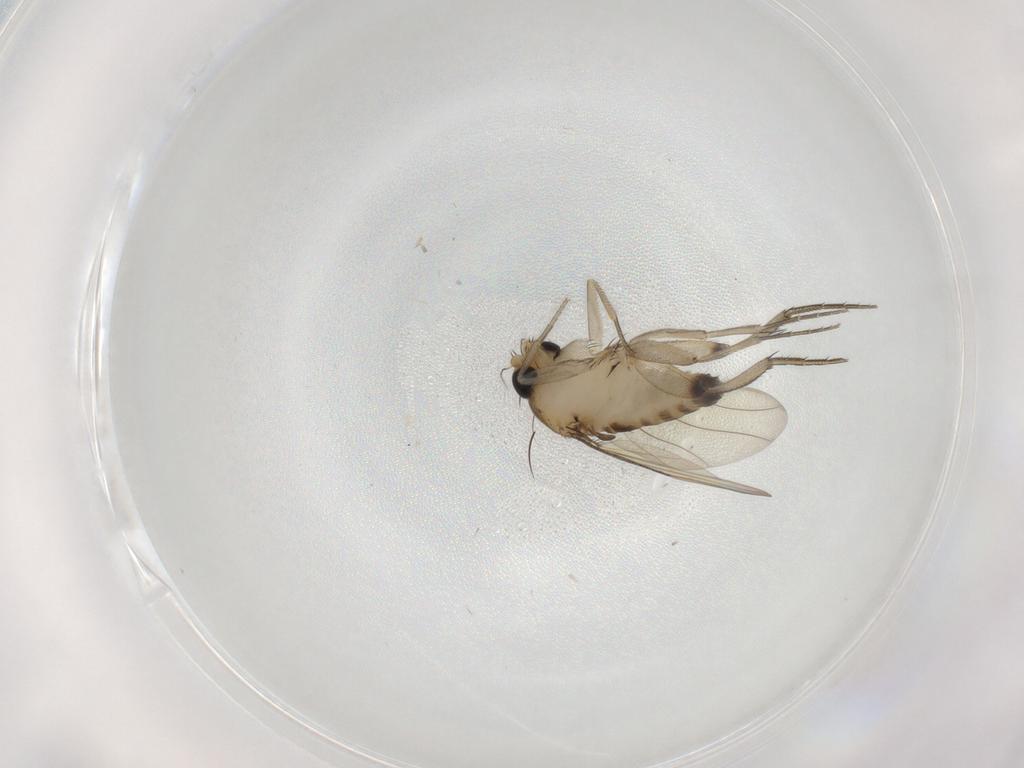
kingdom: Animalia
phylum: Arthropoda
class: Insecta
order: Diptera
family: Phoridae
